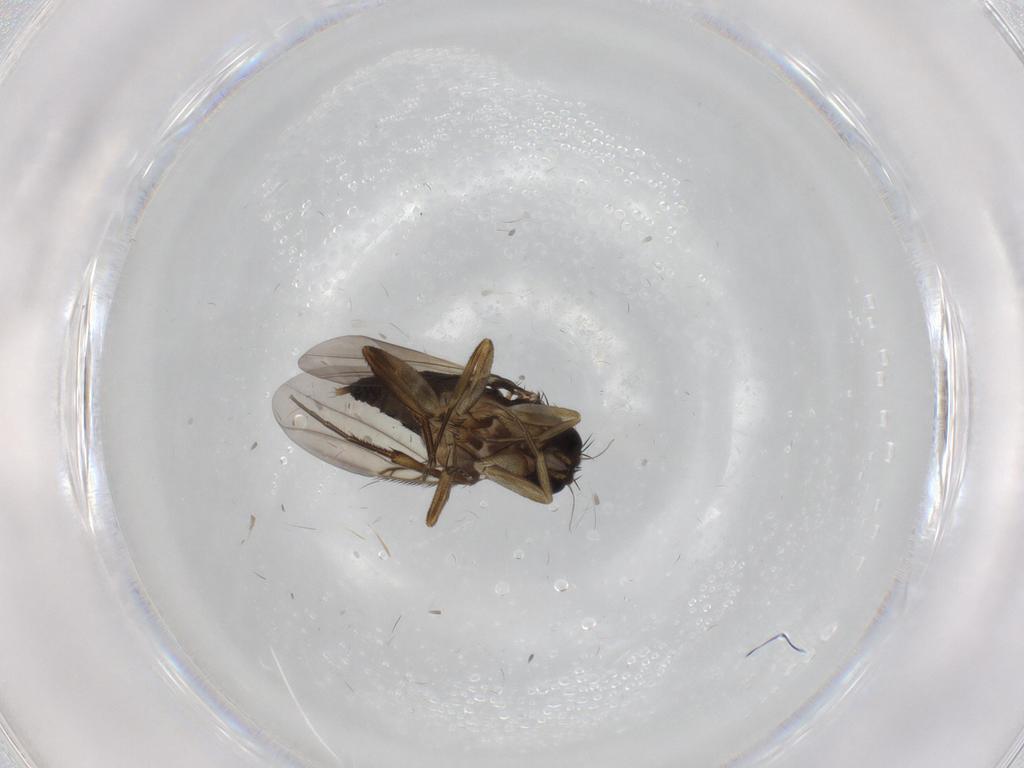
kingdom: Animalia
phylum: Arthropoda
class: Insecta
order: Diptera
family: Phoridae
